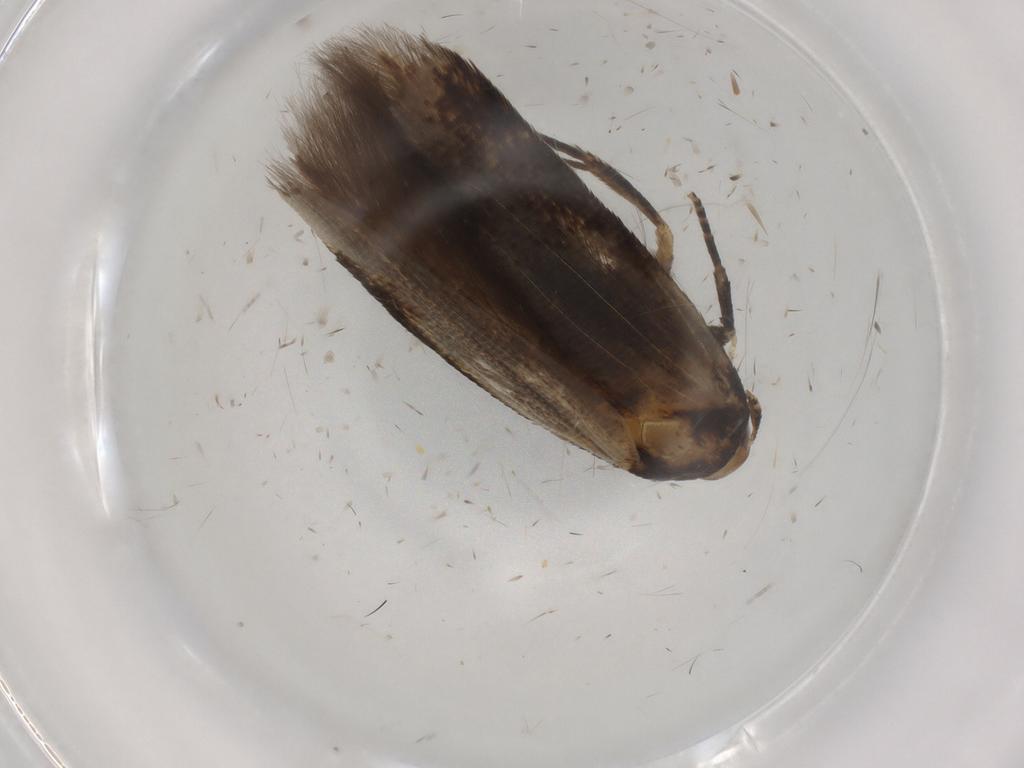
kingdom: Animalia
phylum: Arthropoda
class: Insecta
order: Lepidoptera
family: Cosmopterigidae
